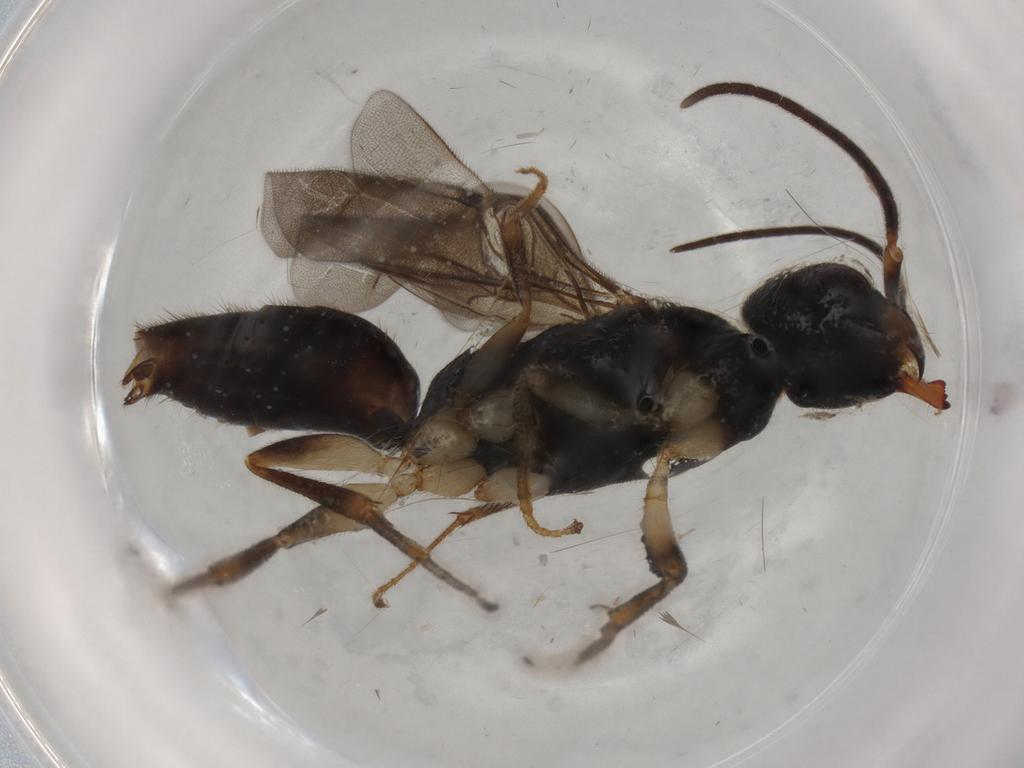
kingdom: Animalia
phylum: Arthropoda
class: Insecta
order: Hymenoptera
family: Bethylidae
